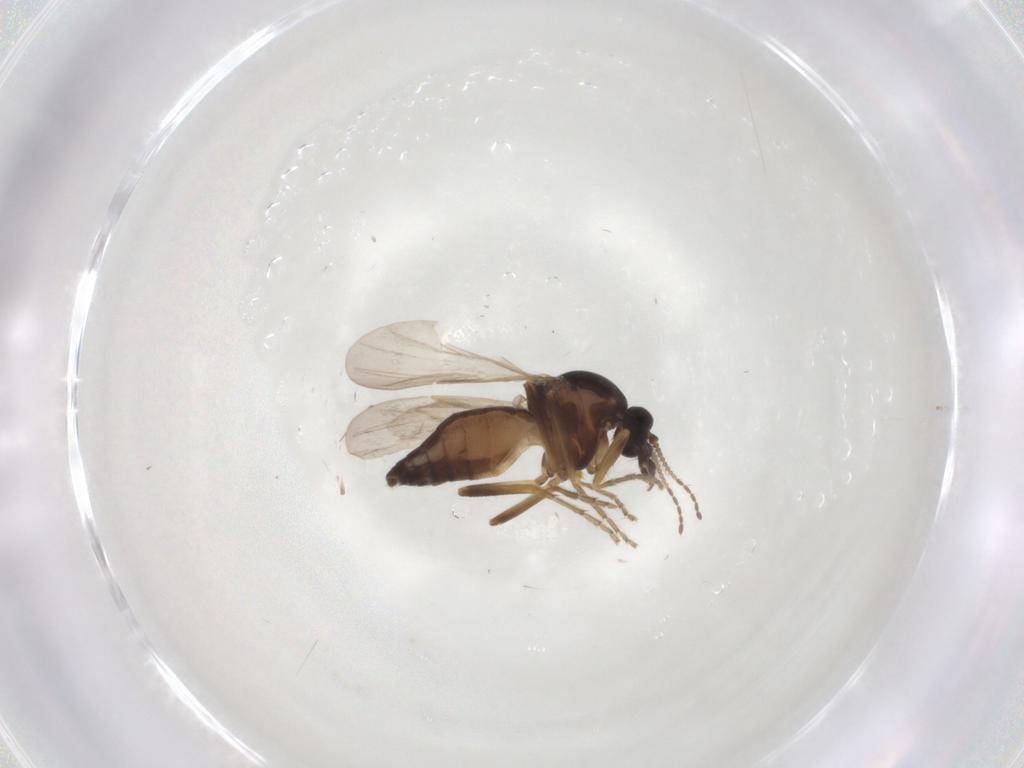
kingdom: Animalia
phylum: Arthropoda
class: Insecta
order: Diptera
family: Ceratopogonidae
